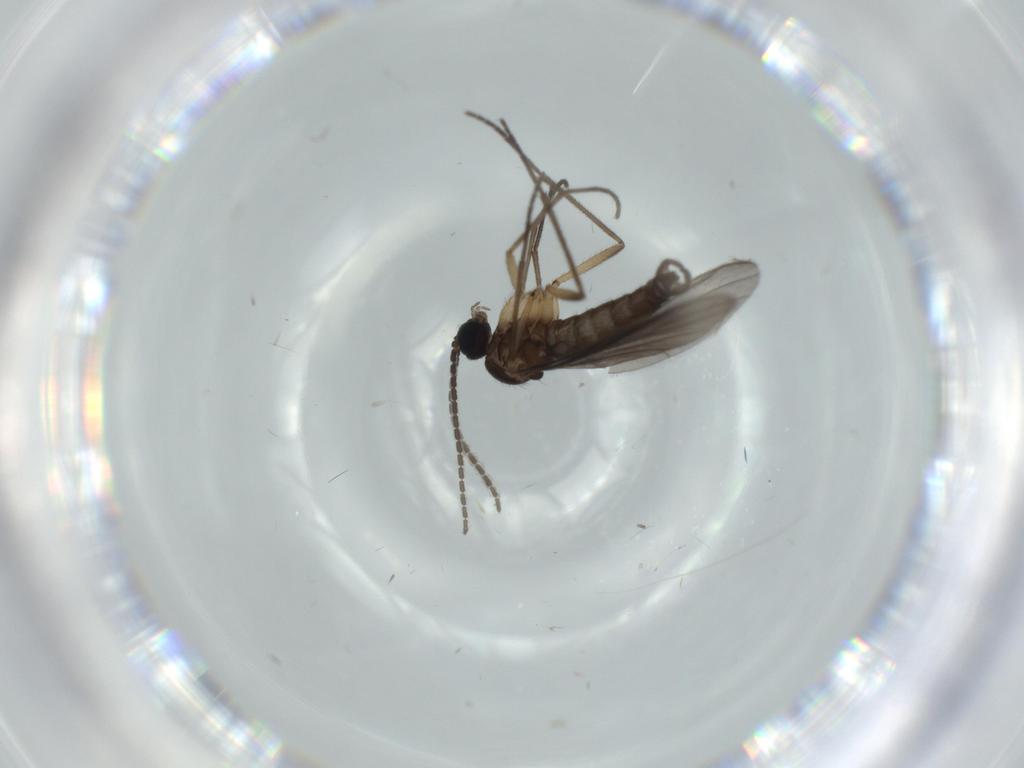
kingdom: Animalia
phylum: Arthropoda
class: Insecta
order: Diptera
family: Sciaridae
